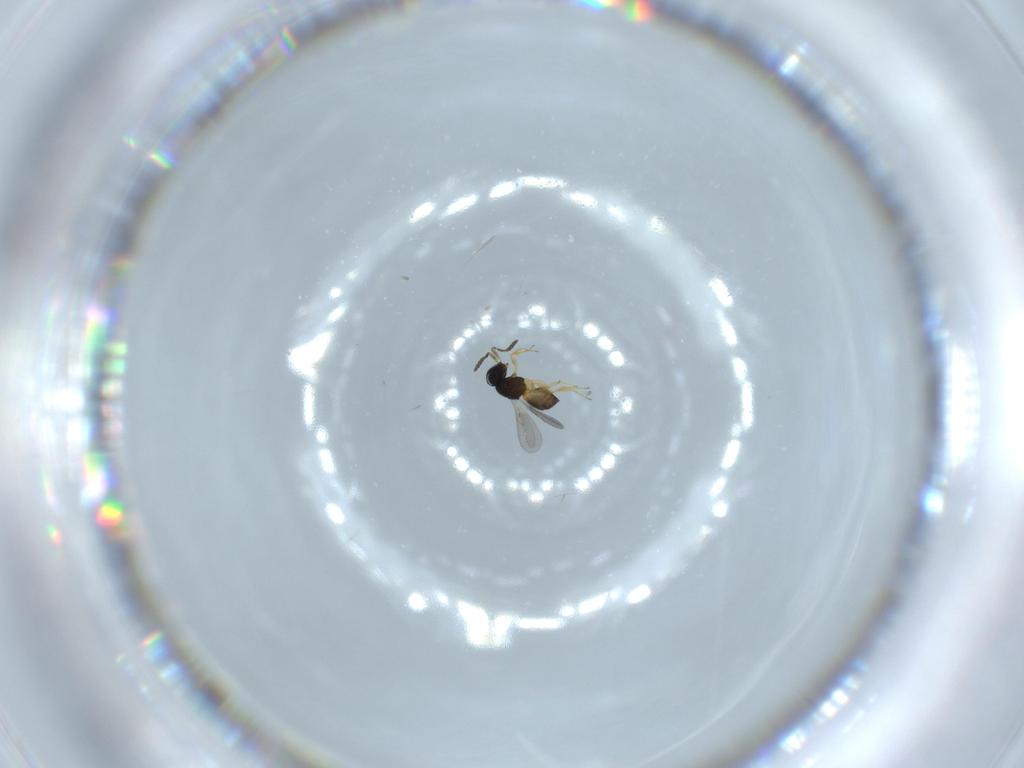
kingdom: Animalia
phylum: Arthropoda
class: Insecta
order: Hymenoptera
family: Scelionidae
